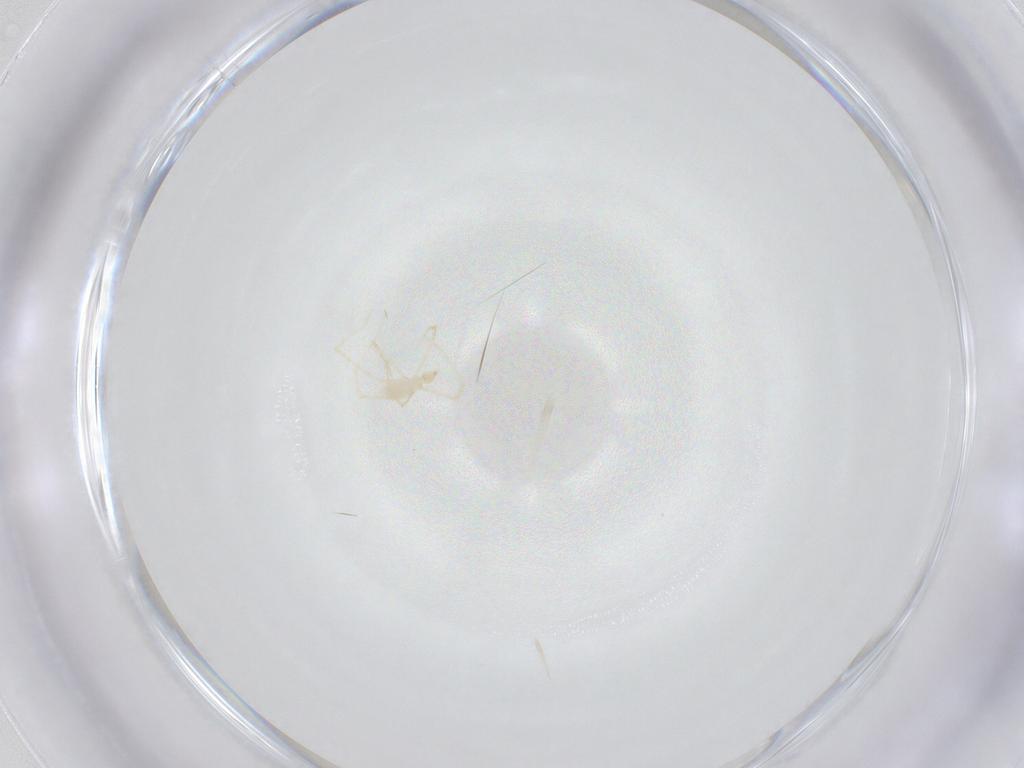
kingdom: Animalia
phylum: Arthropoda
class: Arachnida
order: Trombidiformes
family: Erythraeidae
